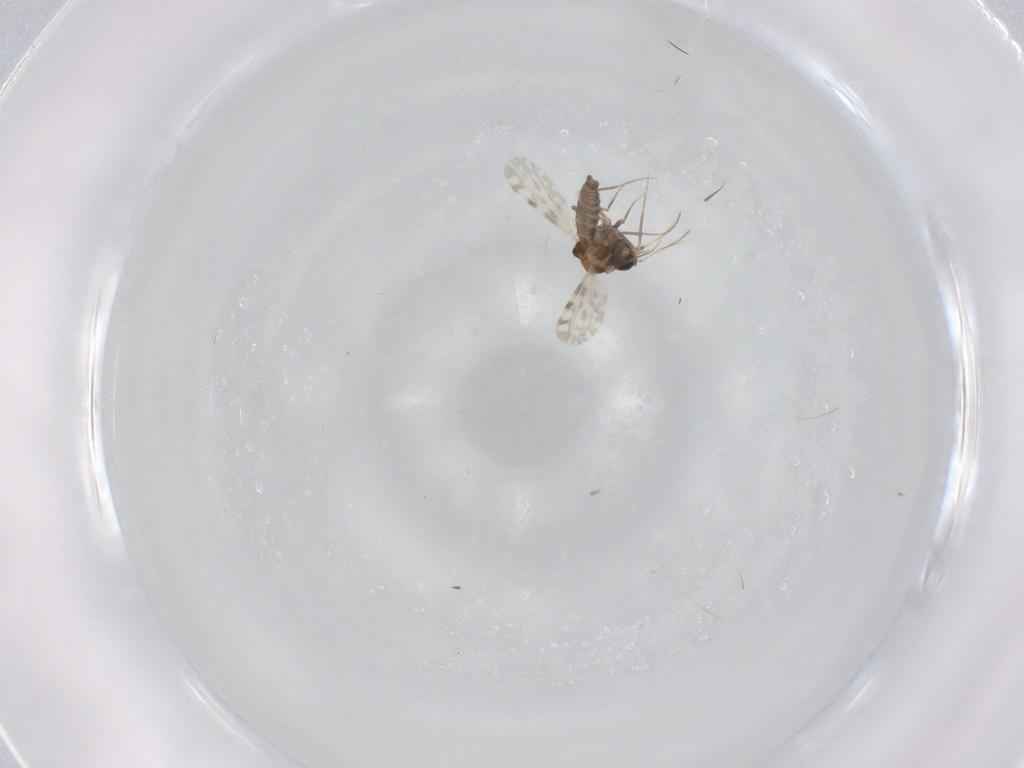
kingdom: Animalia
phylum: Arthropoda
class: Insecta
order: Diptera
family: Ceratopogonidae
